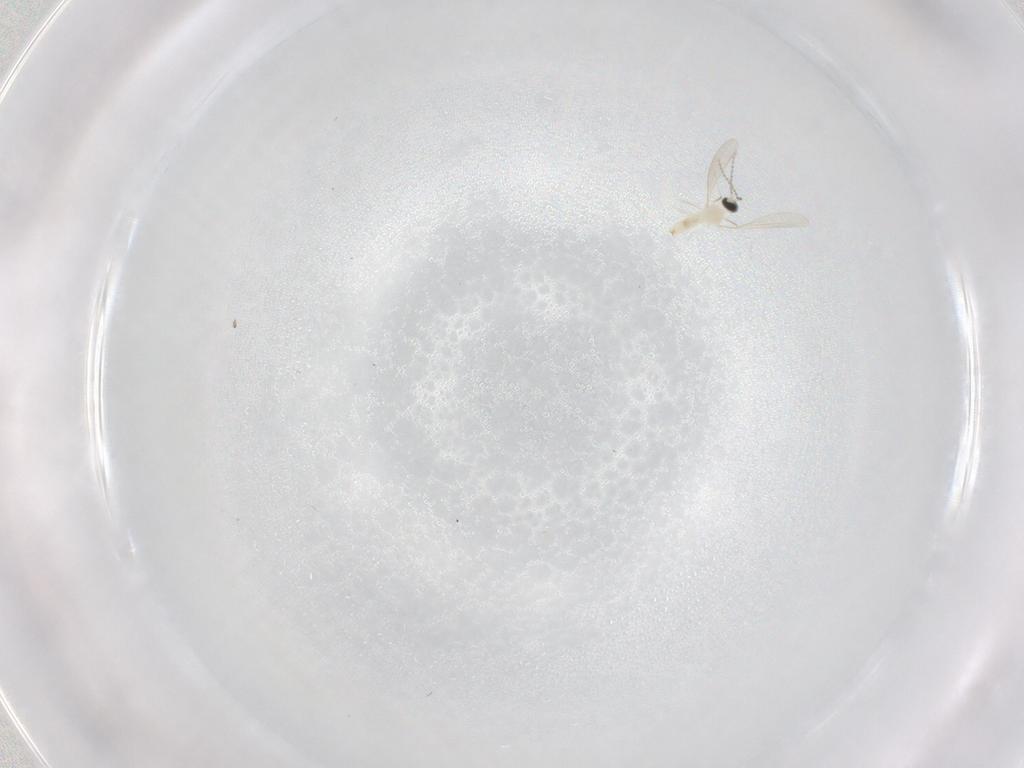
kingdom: Animalia
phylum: Arthropoda
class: Insecta
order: Diptera
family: Cecidomyiidae
